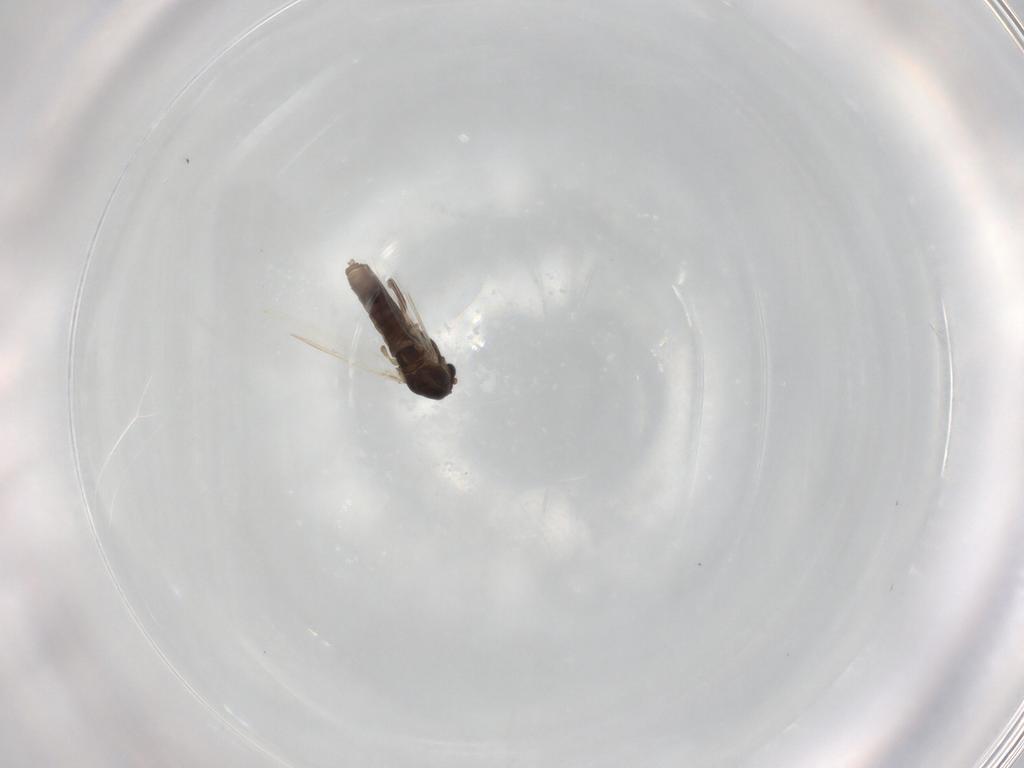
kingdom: Animalia
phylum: Arthropoda
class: Insecta
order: Diptera
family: Chironomidae
